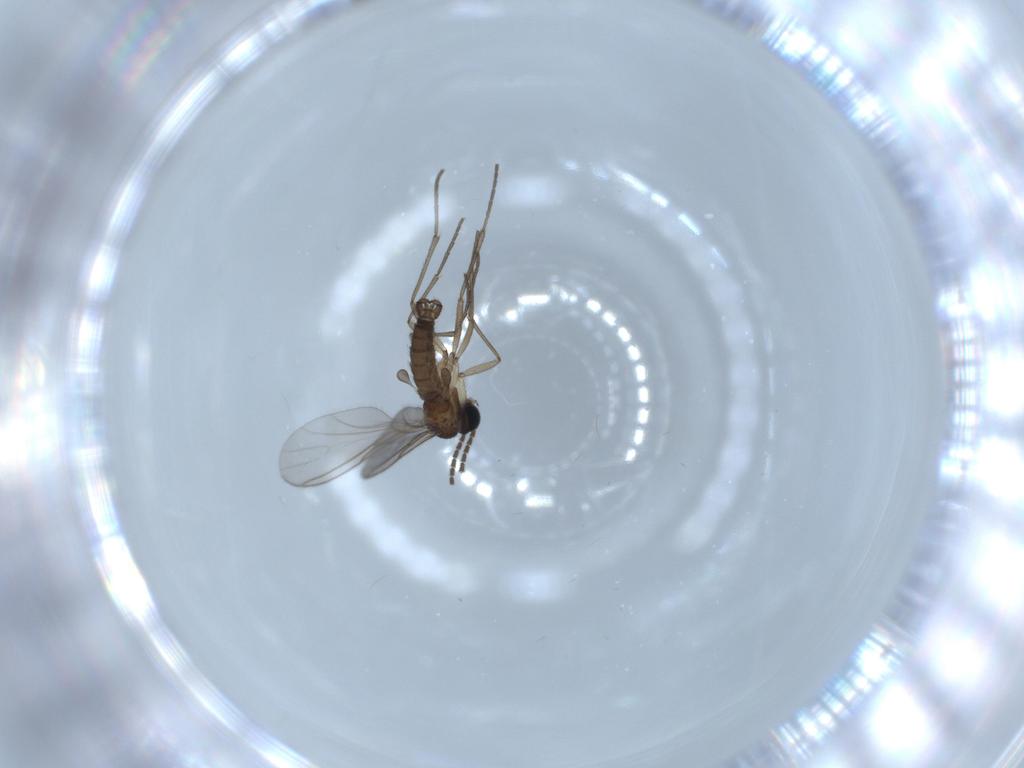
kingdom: Animalia
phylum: Arthropoda
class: Insecta
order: Diptera
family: Sciaridae
